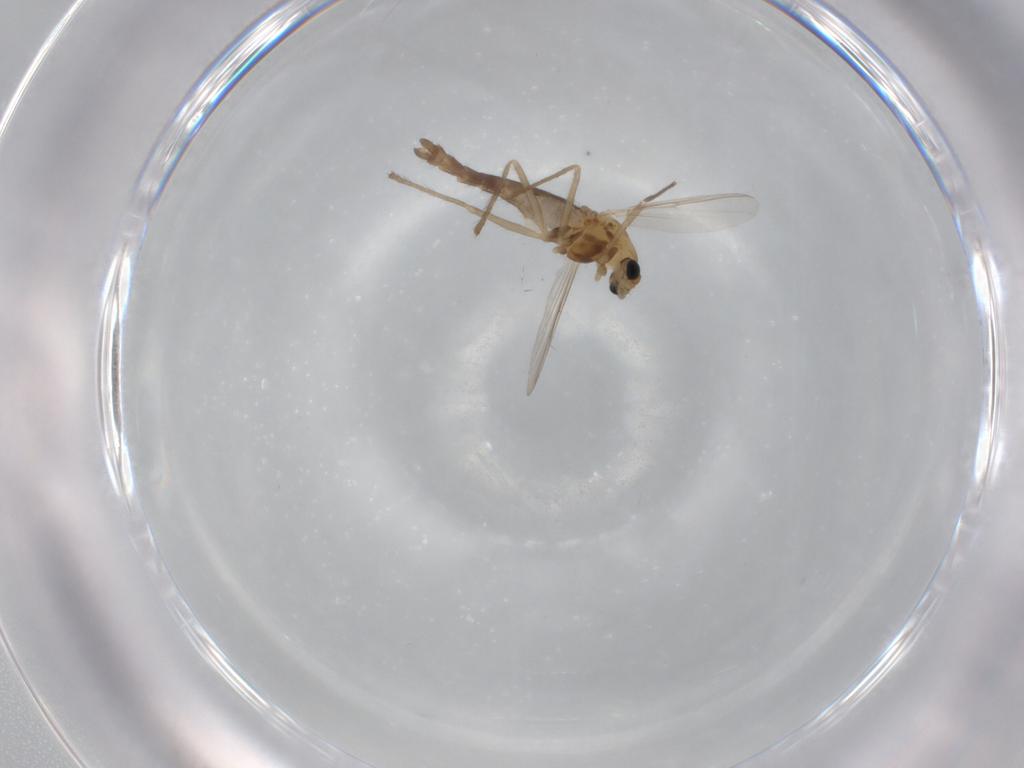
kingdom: Animalia
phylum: Arthropoda
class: Insecta
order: Diptera
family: Chironomidae
